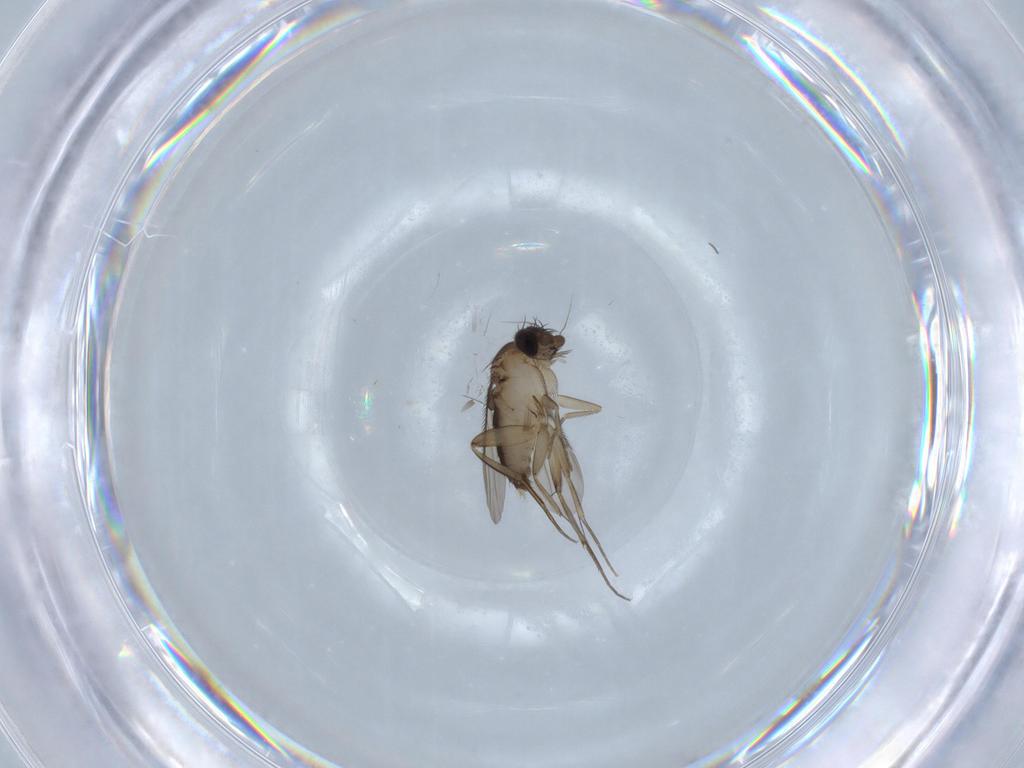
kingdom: Animalia
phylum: Arthropoda
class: Insecta
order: Diptera
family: Phoridae
